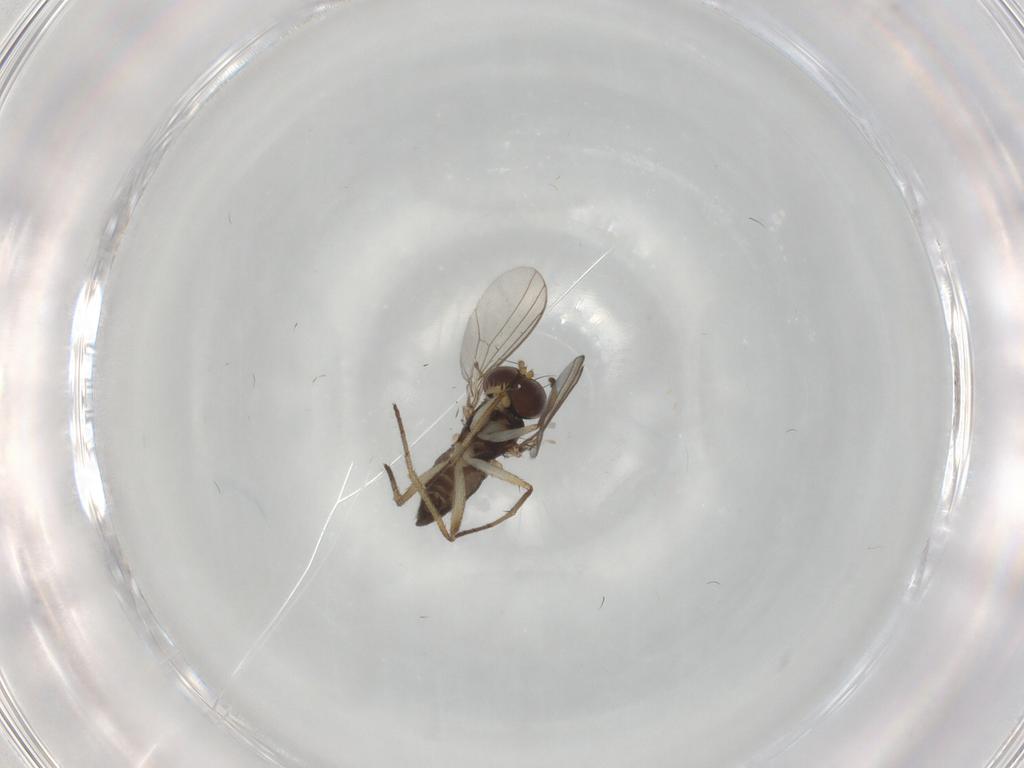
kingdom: Animalia
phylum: Arthropoda
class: Insecta
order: Diptera
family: Dolichopodidae
